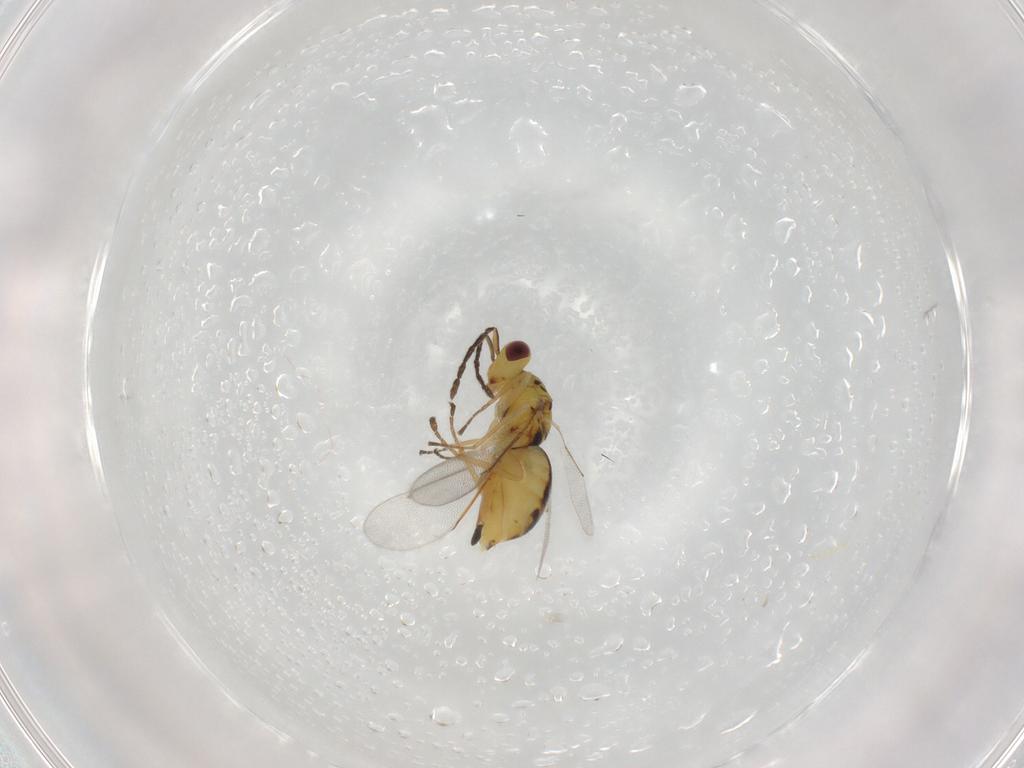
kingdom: Animalia
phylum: Arthropoda
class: Insecta
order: Hymenoptera
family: Eulophidae
